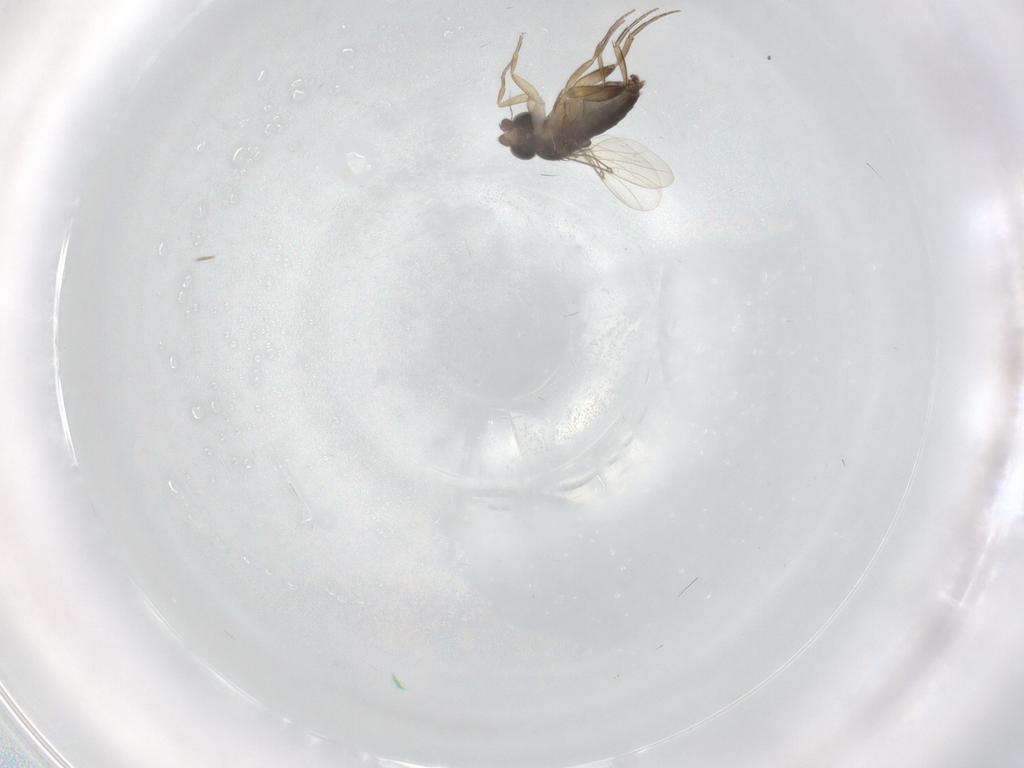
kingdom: Animalia
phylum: Arthropoda
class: Insecta
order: Diptera
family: Phoridae
